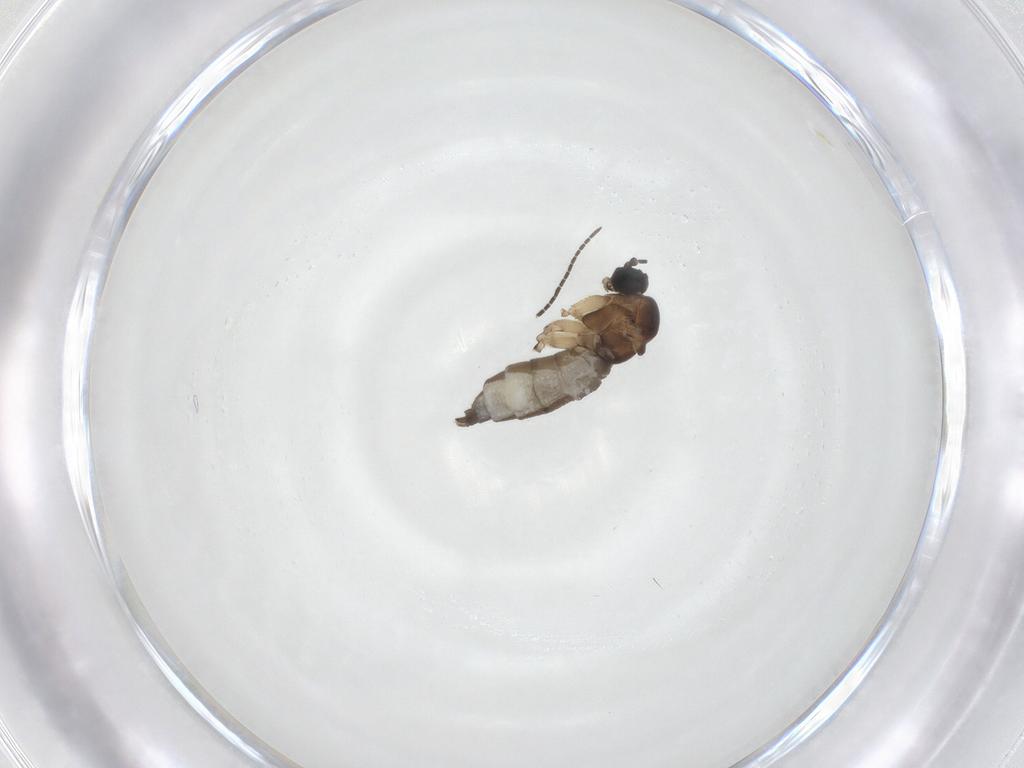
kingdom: Animalia
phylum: Arthropoda
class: Insecta
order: Diptera
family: Sciaridae
